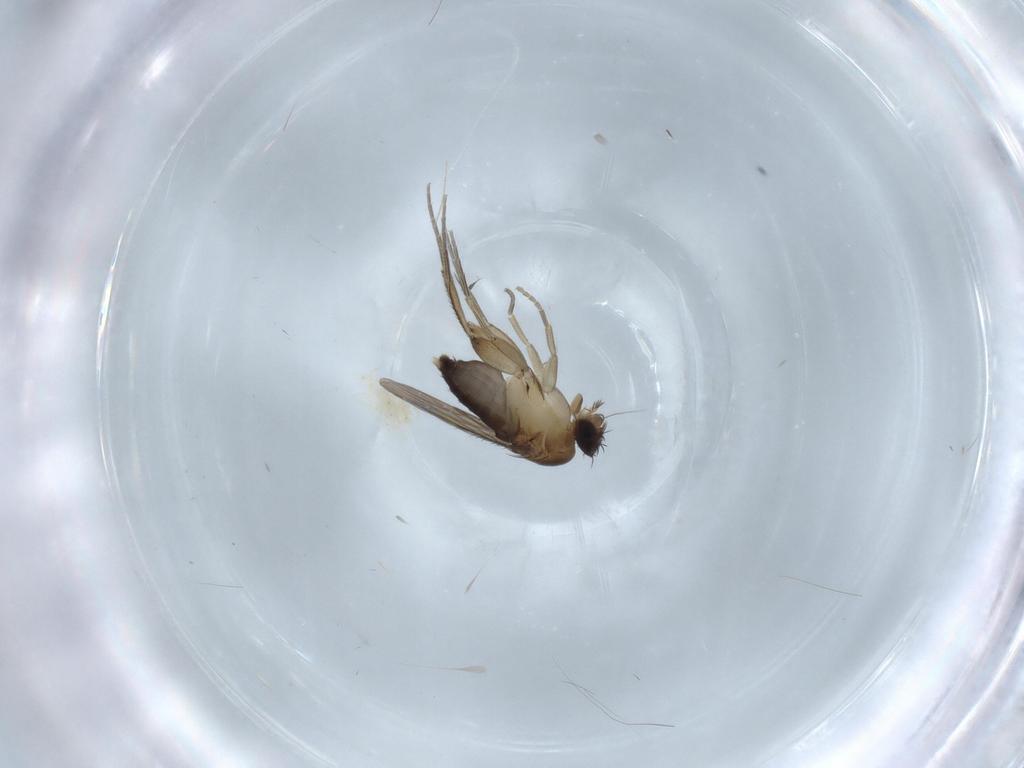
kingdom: Animalia
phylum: Arthropoda
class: Insecta
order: Diptera
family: Phoridae
